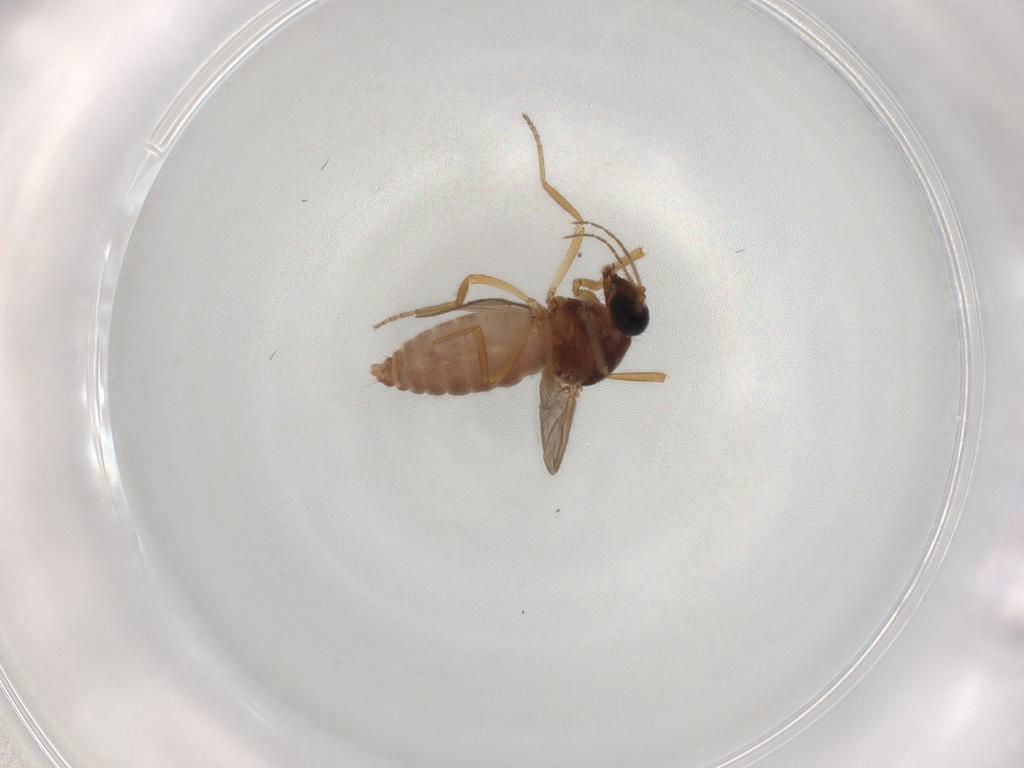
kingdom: Animalia
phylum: Arthropoda
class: Insecta
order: Diptera
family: Ceratopogonidae
